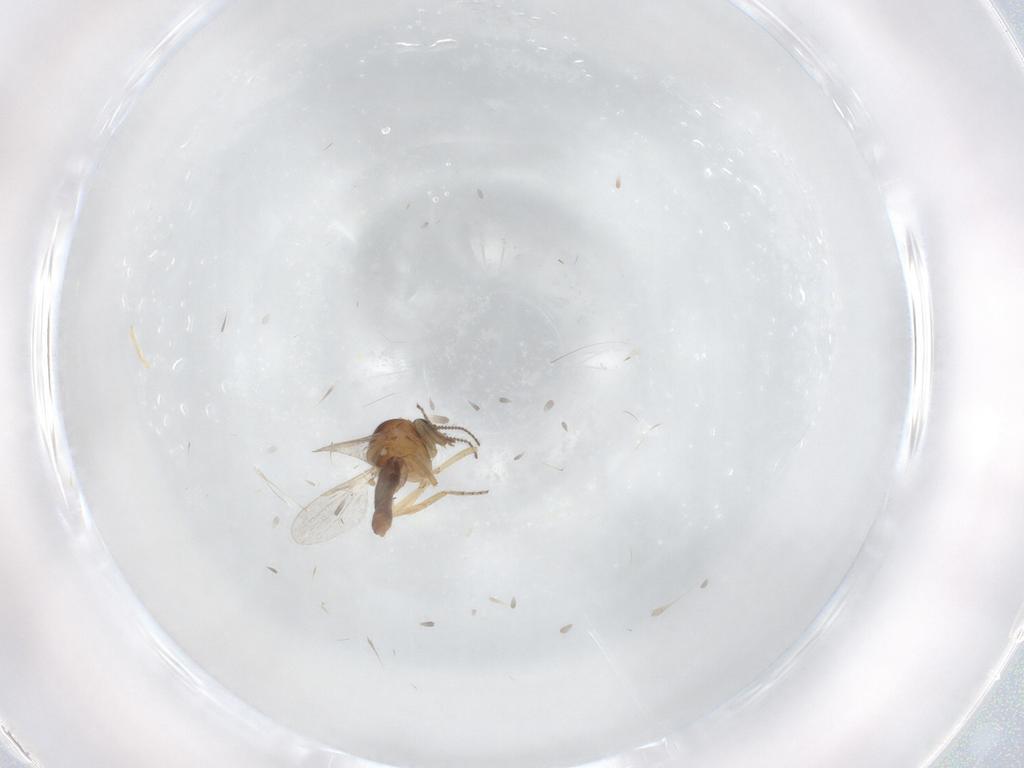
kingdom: Animalia
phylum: Arthropoda
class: Insecta
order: Diptera
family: Ceratopogonidae
